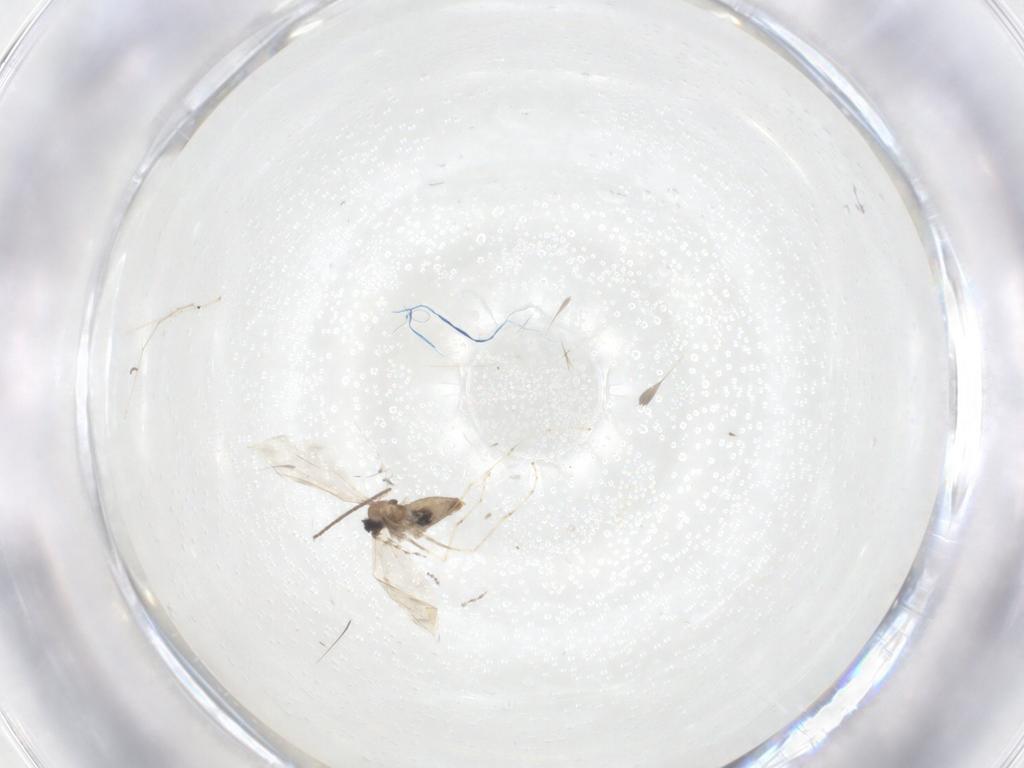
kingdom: Animalia
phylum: Arthropoda
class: Insecta
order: Diptera
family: Cecidomyiidae
